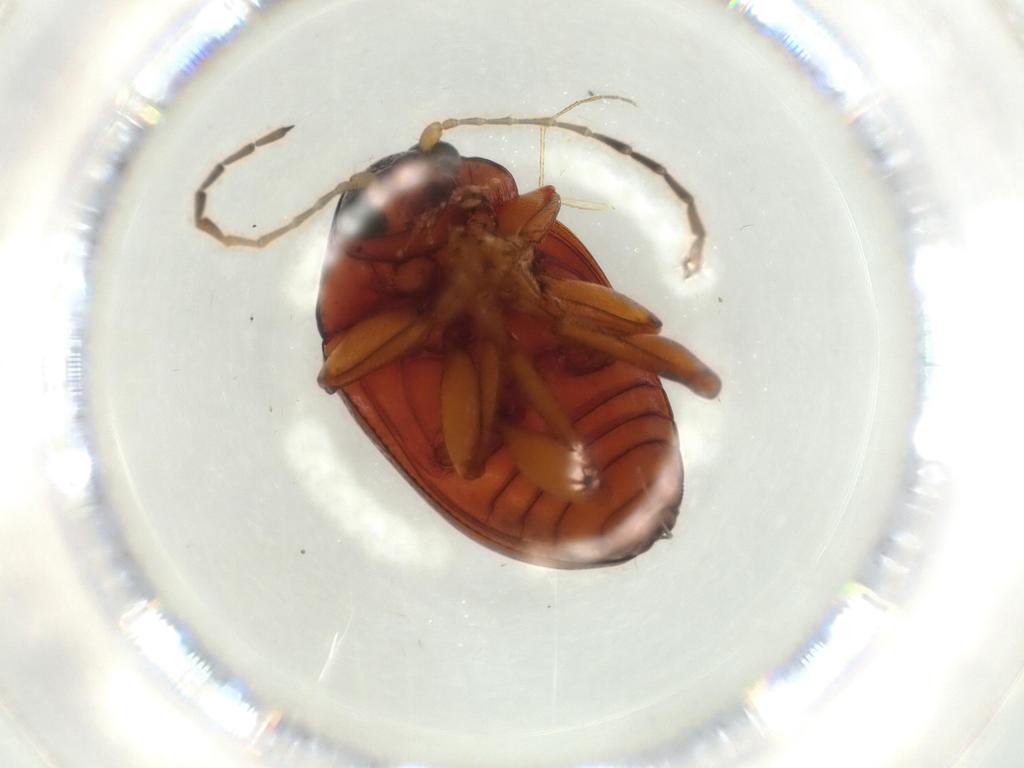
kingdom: Animalia
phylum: Arthropoda
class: Insecta
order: Coleoptera
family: Chrysomelidae
